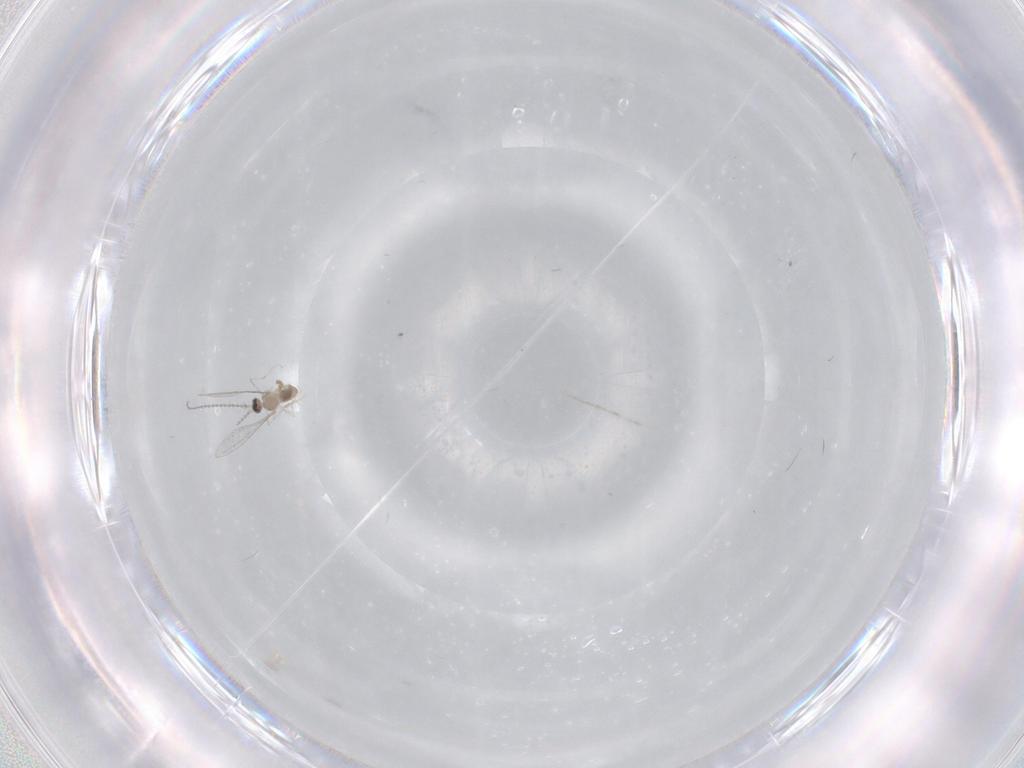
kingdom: Animalia
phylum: Arthropoda
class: Insecta
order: Diptera
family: Cecidomyiidae
